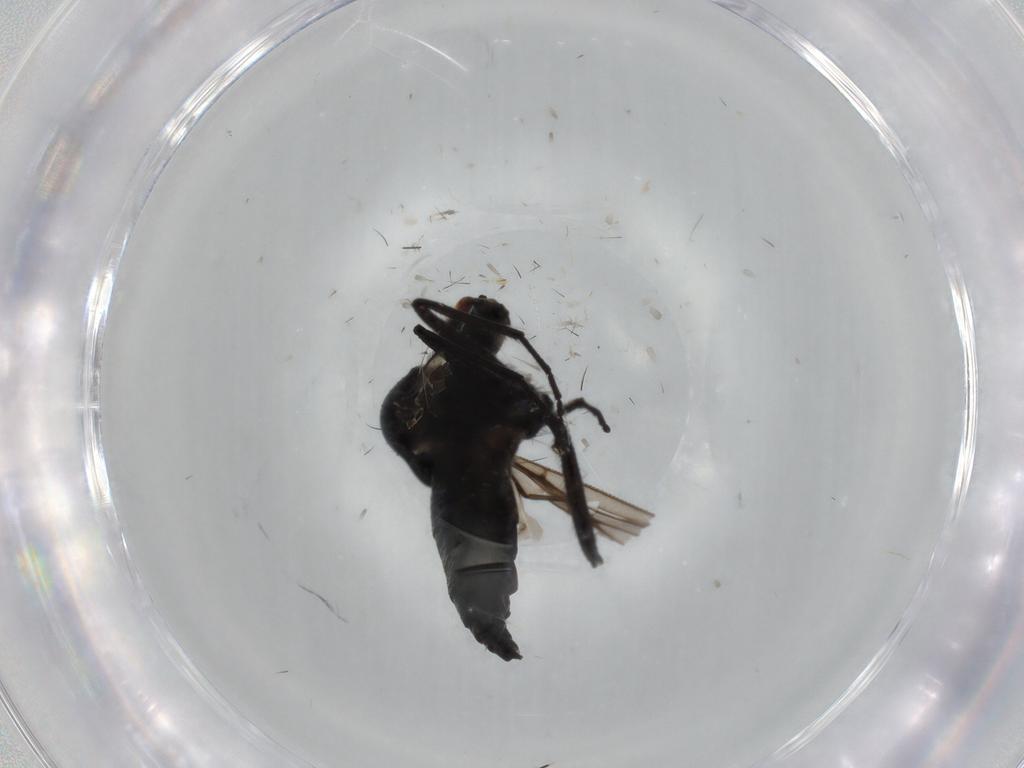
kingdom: Animalia
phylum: Arthropoda
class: Insecta
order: Diptera
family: Hybotidae
